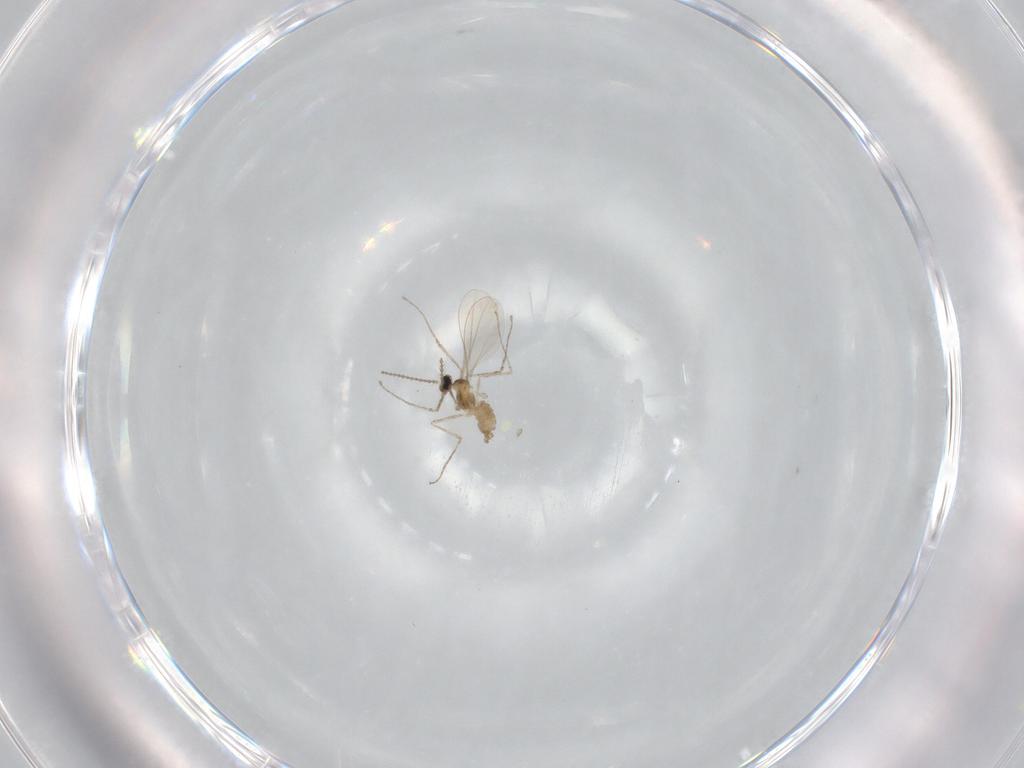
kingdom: Animalia
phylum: Arthropoda
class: Insecta
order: Diptera
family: Cecidomyiidae
